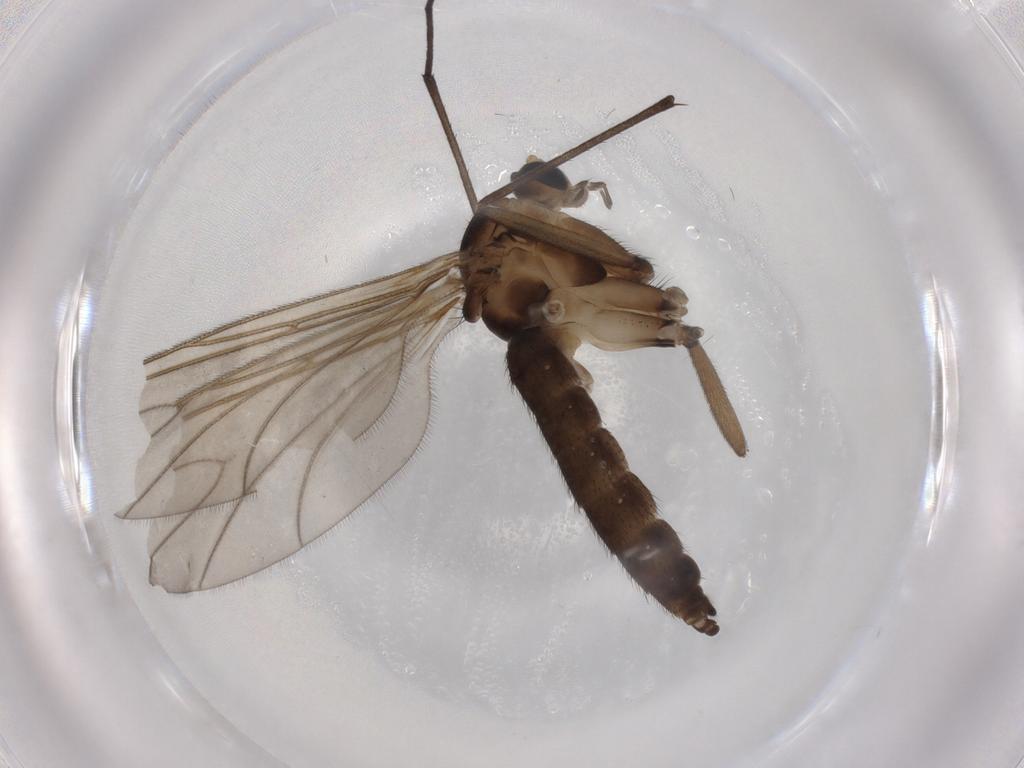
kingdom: Animalia
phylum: Arthropoda
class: Insecta
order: Diptera
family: Sciaridae
